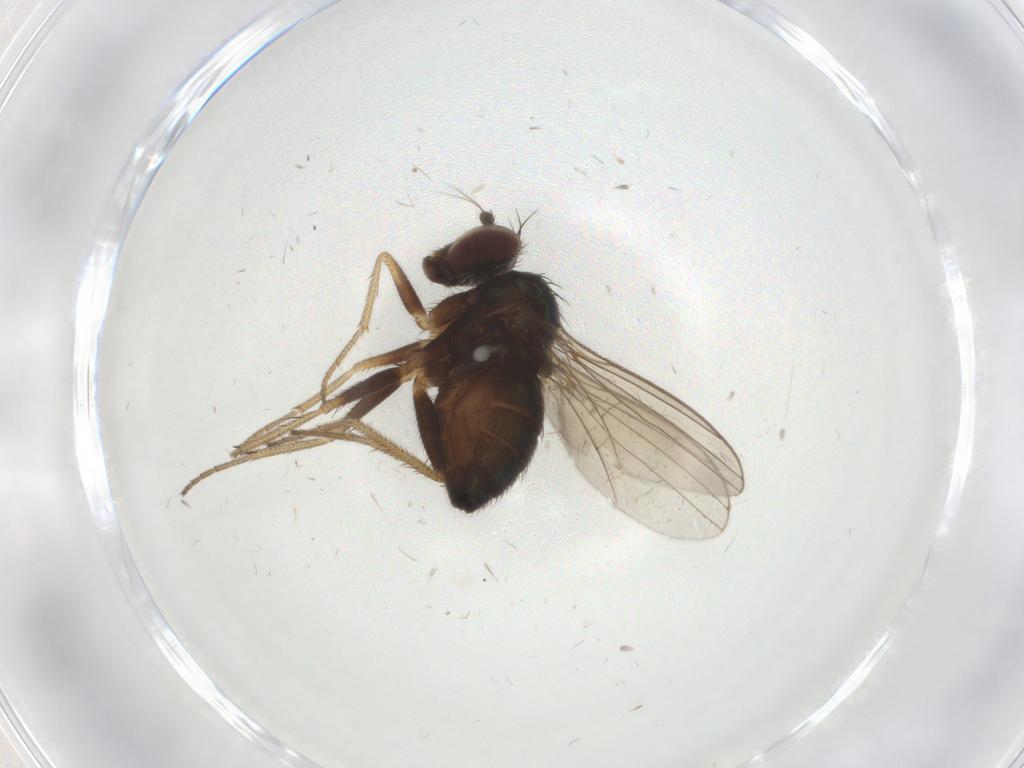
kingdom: Animalia
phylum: Arthropoda
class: Insecta
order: Diptera
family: Dolichopodidae
